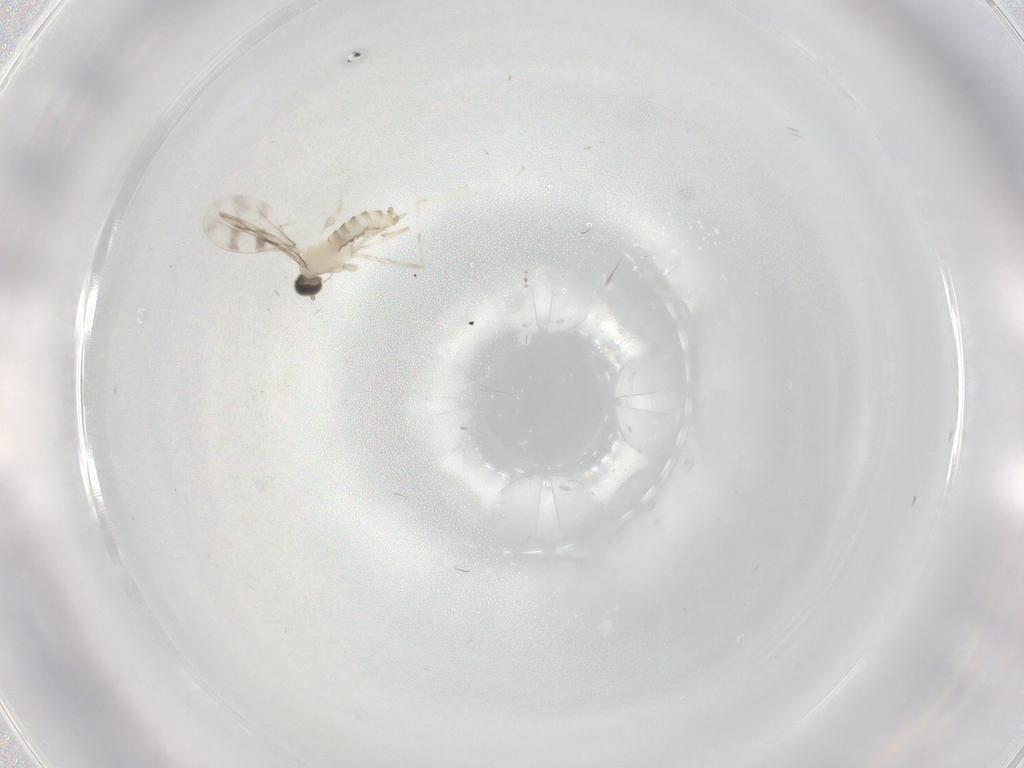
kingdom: Animalia
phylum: Arthropoda
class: Insecta
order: Diptera
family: Cecidomyiidae
